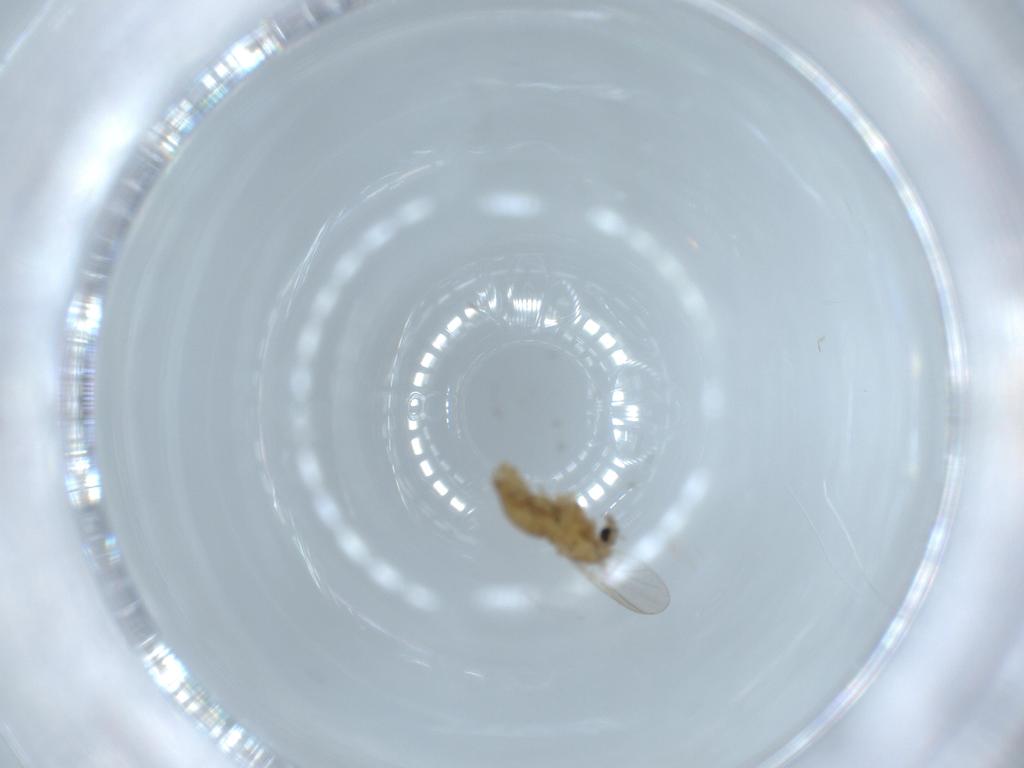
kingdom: Animalia
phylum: Arthropoda
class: Insecta
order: Diptera
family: Chironomidae
